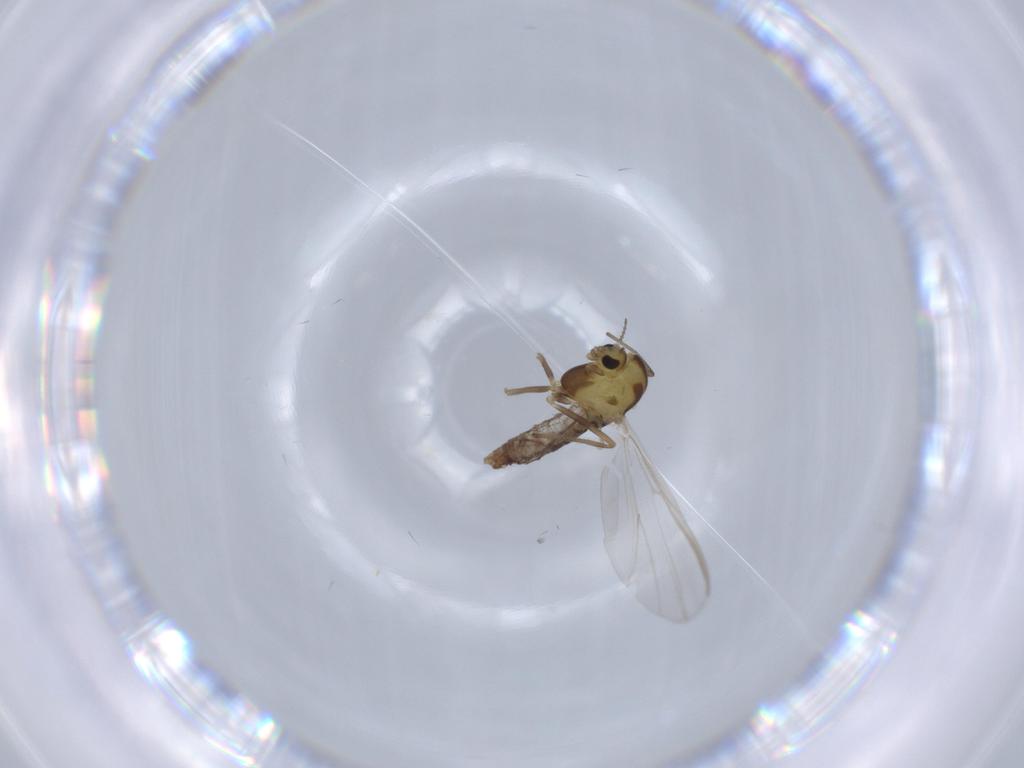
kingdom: Animalia
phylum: Arthropoda
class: Insecta
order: Diptera
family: Chironomidae
